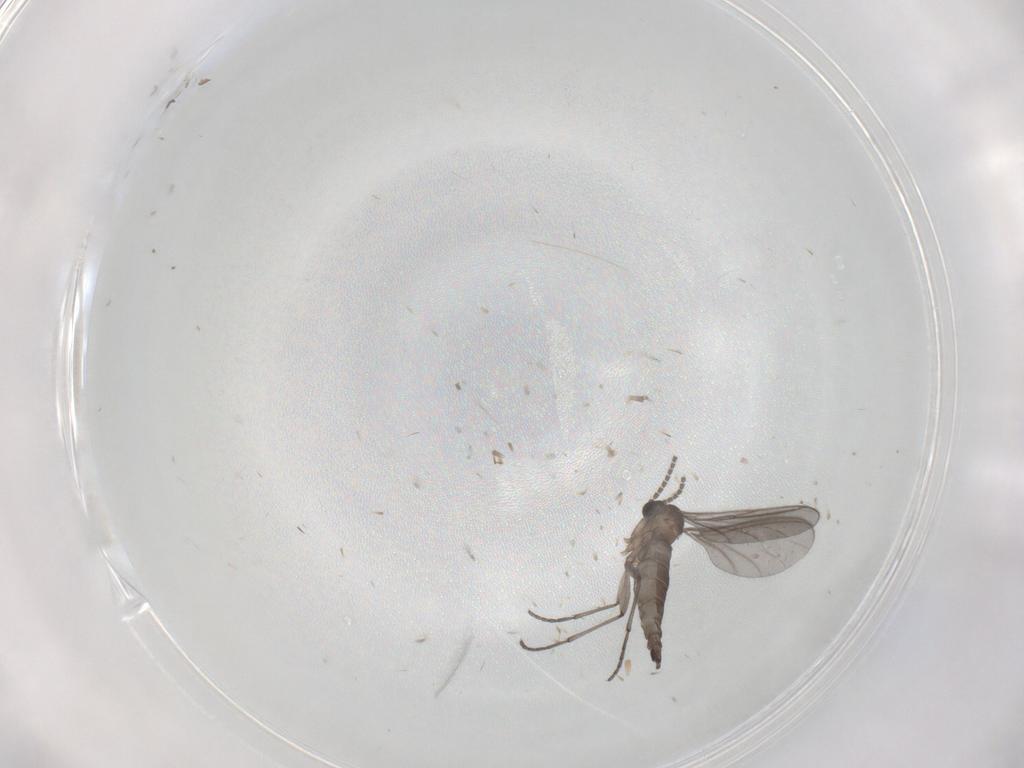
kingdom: Animalia
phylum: Arthropoda
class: Insecta
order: Diptera
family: Sciaridae
